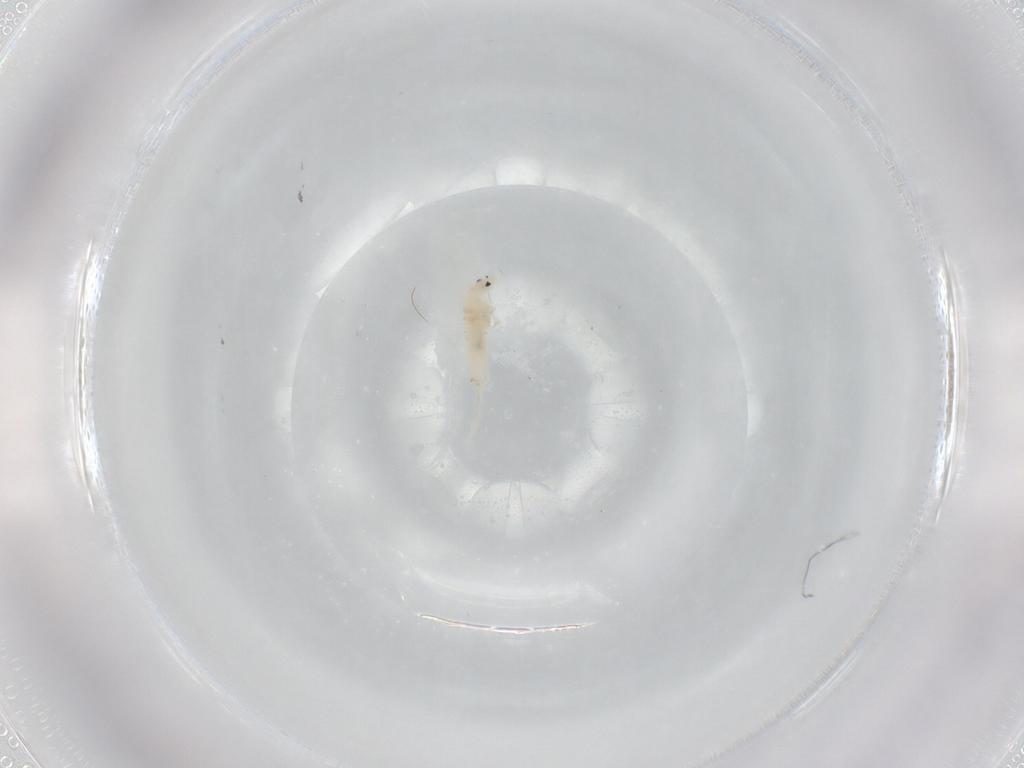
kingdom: Animalia
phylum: Arthropoda
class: Collembola
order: Entomobryomorpha
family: Entomobryidae
